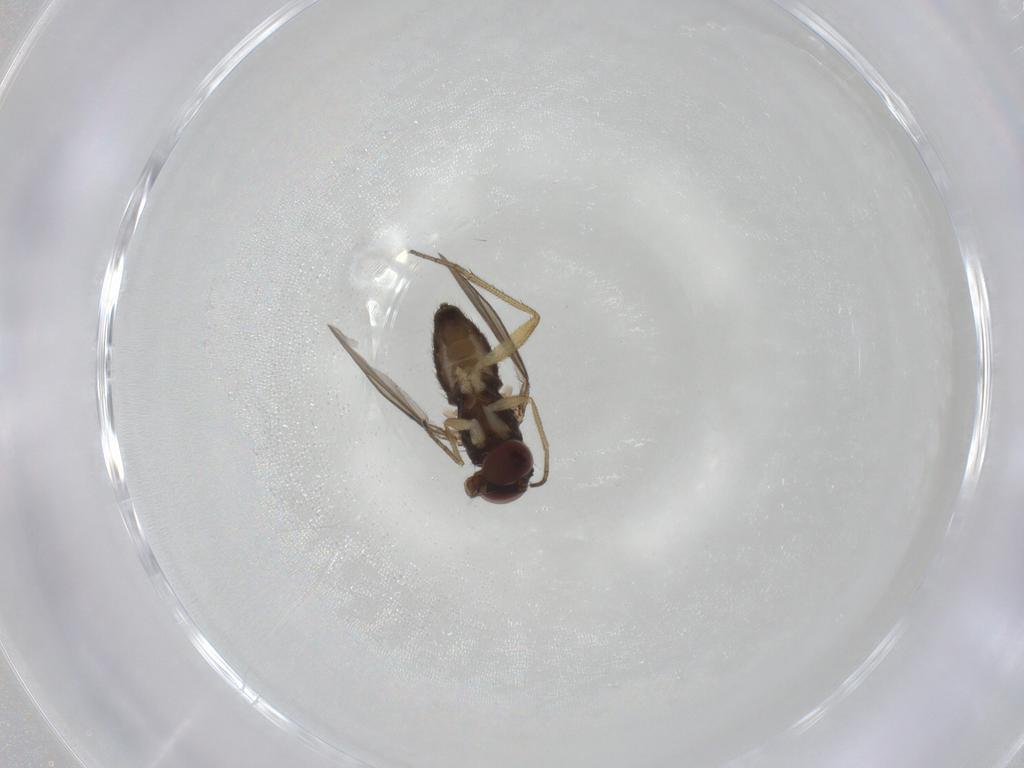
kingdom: Animalia
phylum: Arthropoda
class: Insecta
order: Diptera
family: Dolichopodidae
